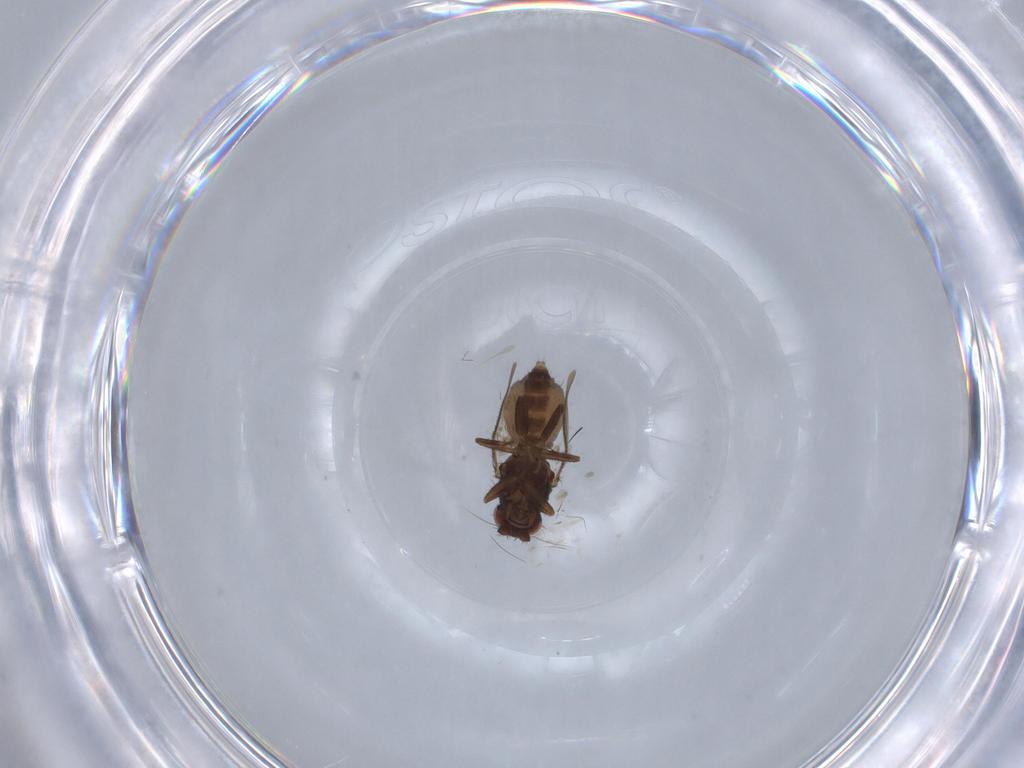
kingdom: Animalia
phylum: Arthropoda
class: Insecta
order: Diptera
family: Sphaeroceridae
